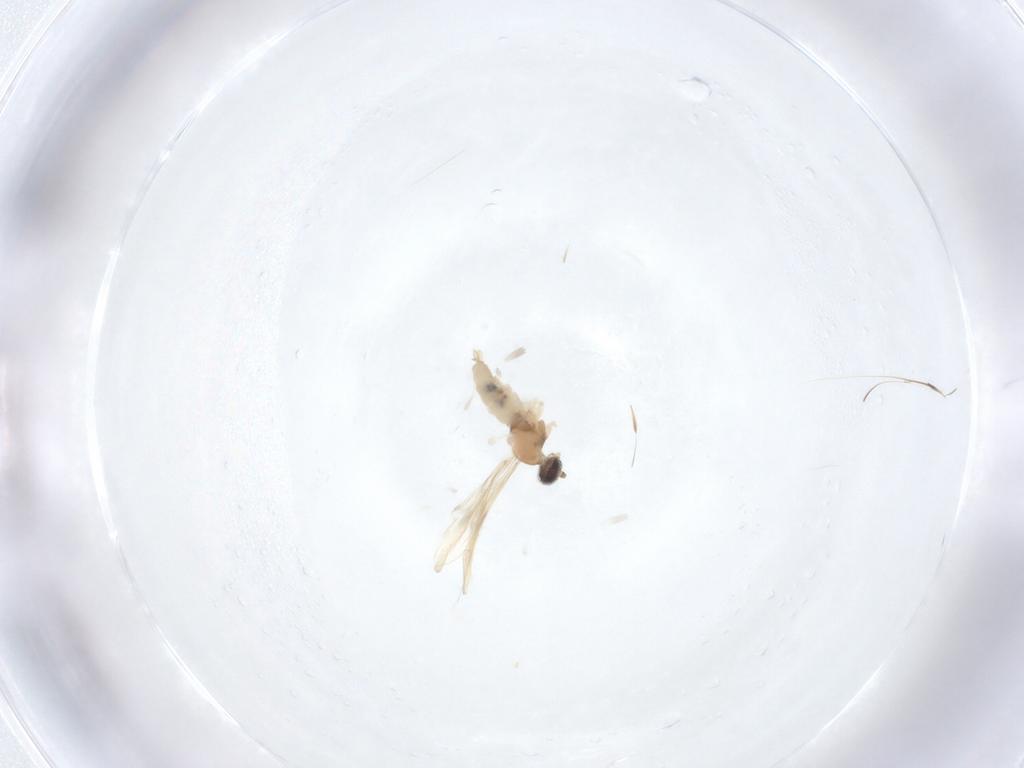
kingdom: Animalia
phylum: Arthropoda
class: Insecta
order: Diptera
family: Cecidomyiidae
